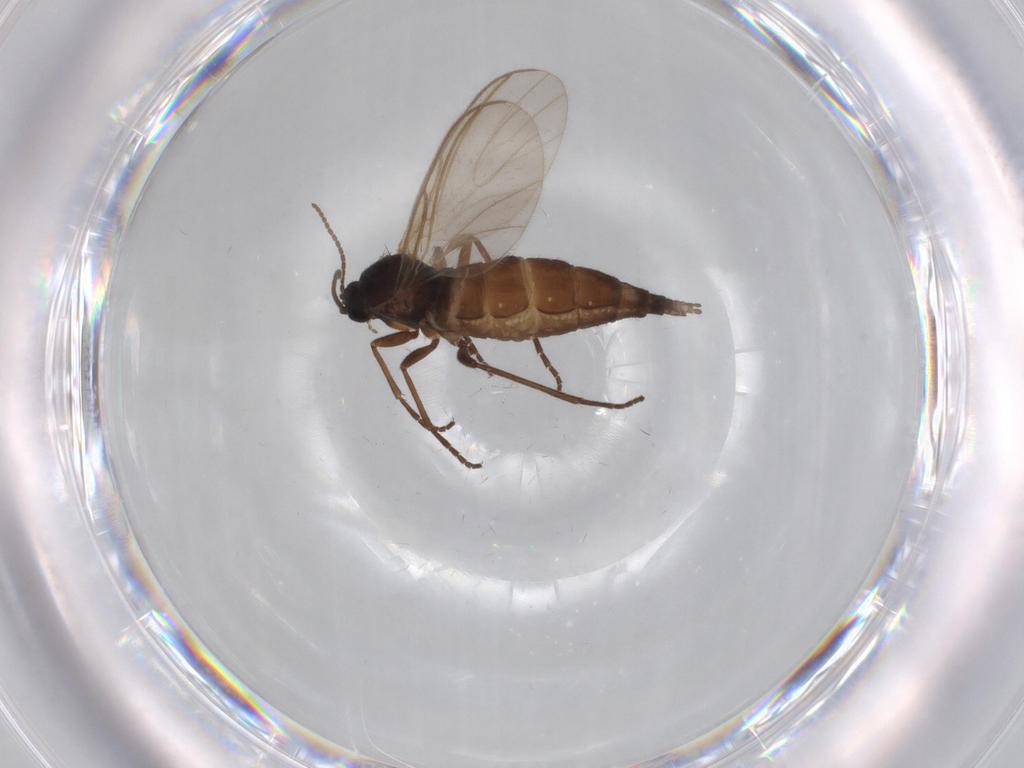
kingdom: Animalia
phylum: Arthropoda
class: Insecta
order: Diptera
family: Sciaridae
